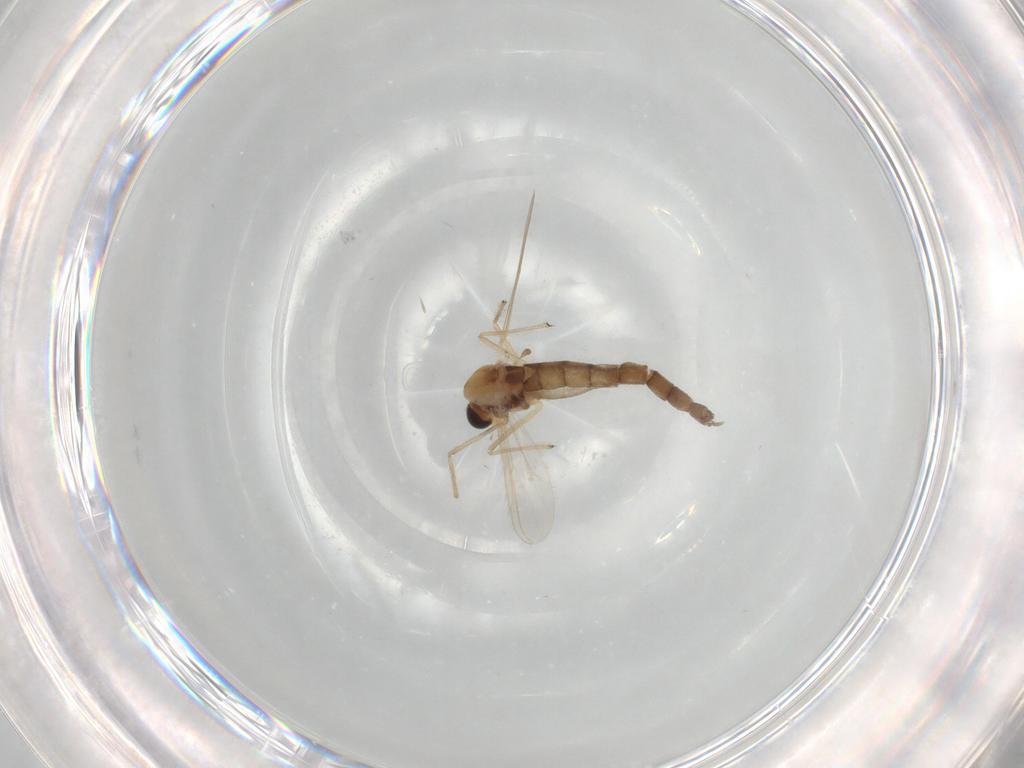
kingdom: Animalia
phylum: Arthropoda
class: Insecta
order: Diptera
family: Chironomidae
